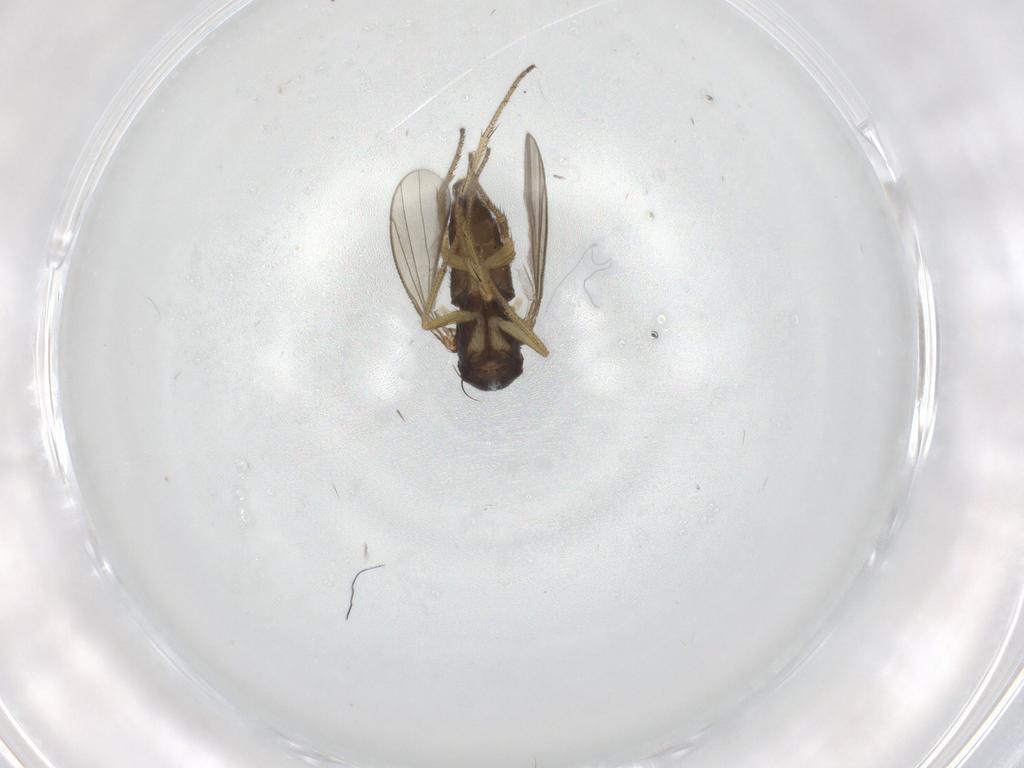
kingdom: Animalia
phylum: Arthropoda
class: Insecta
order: Diptera
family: Dolichopodidae
